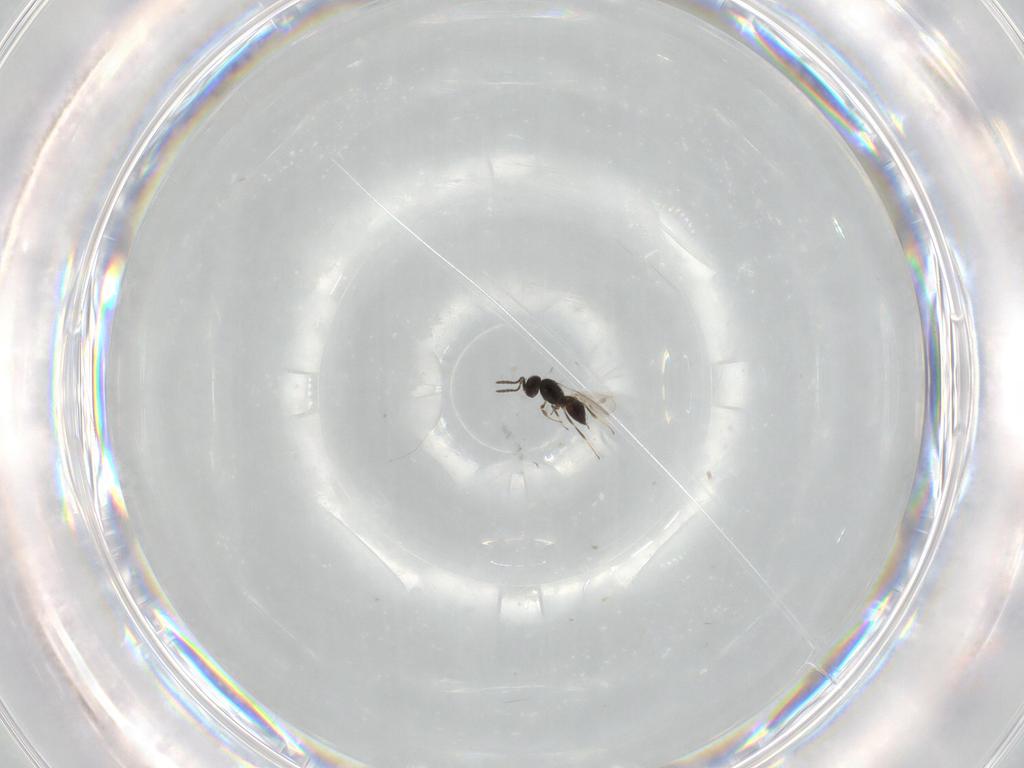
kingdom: Animalia
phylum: Arthropoda
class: Insecta
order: Hymenoptera
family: Scelionidae
